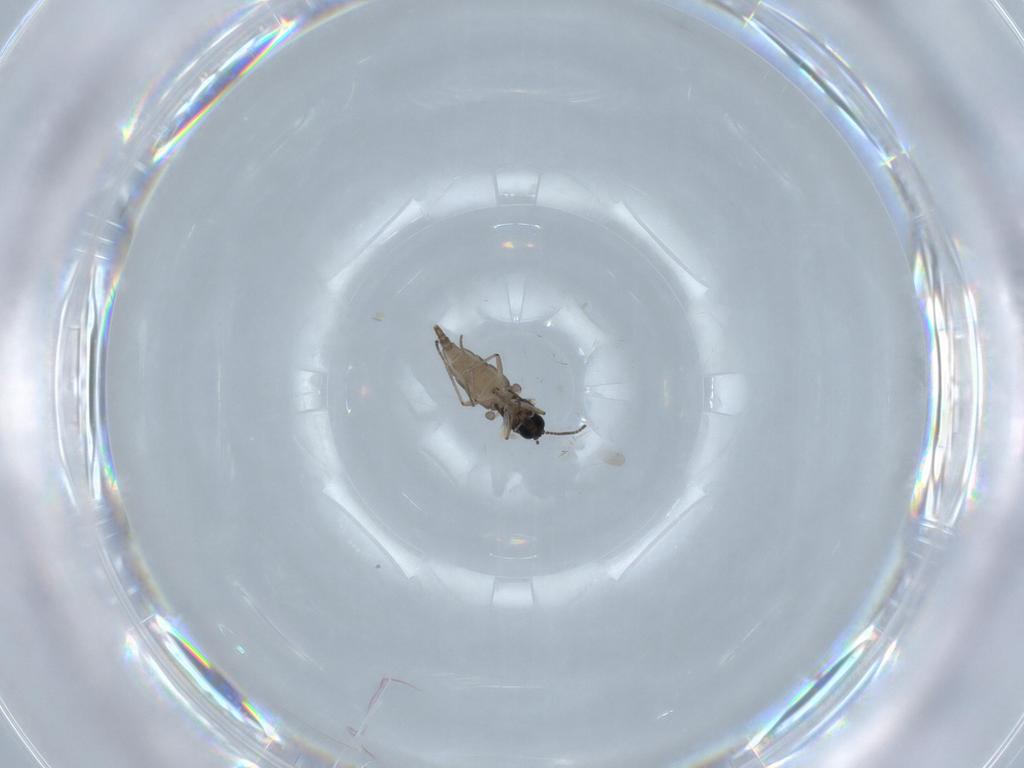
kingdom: Animalia
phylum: Arthropoda
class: Insecta
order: Diptera
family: Sciaridae
